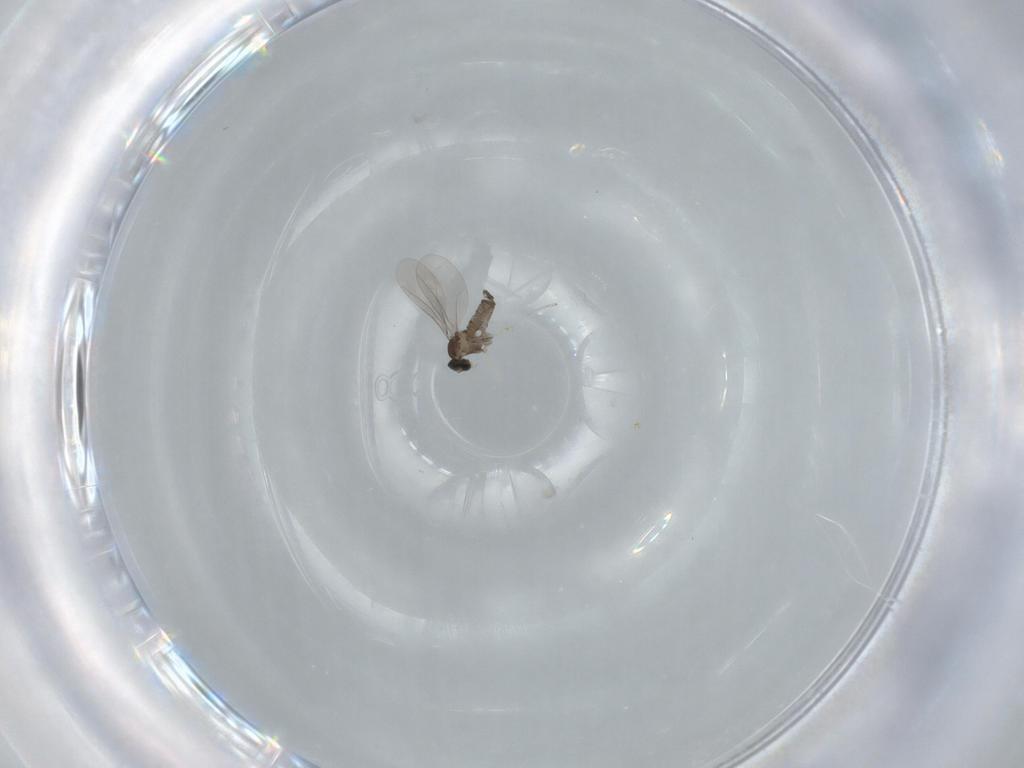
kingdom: Animalia
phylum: Arthropoda
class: Insecta
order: Diptera
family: Cecidomyiidae
